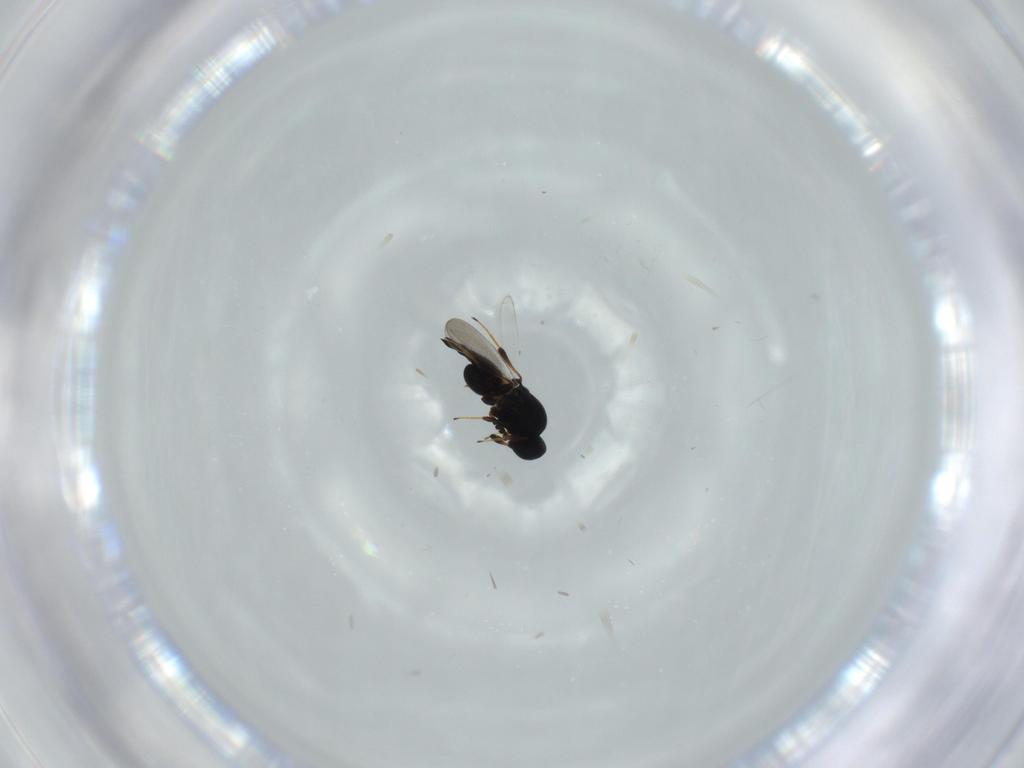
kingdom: Animalia
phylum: Arthropoda
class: Insecta
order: Hymenoptera
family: Platygastridae
